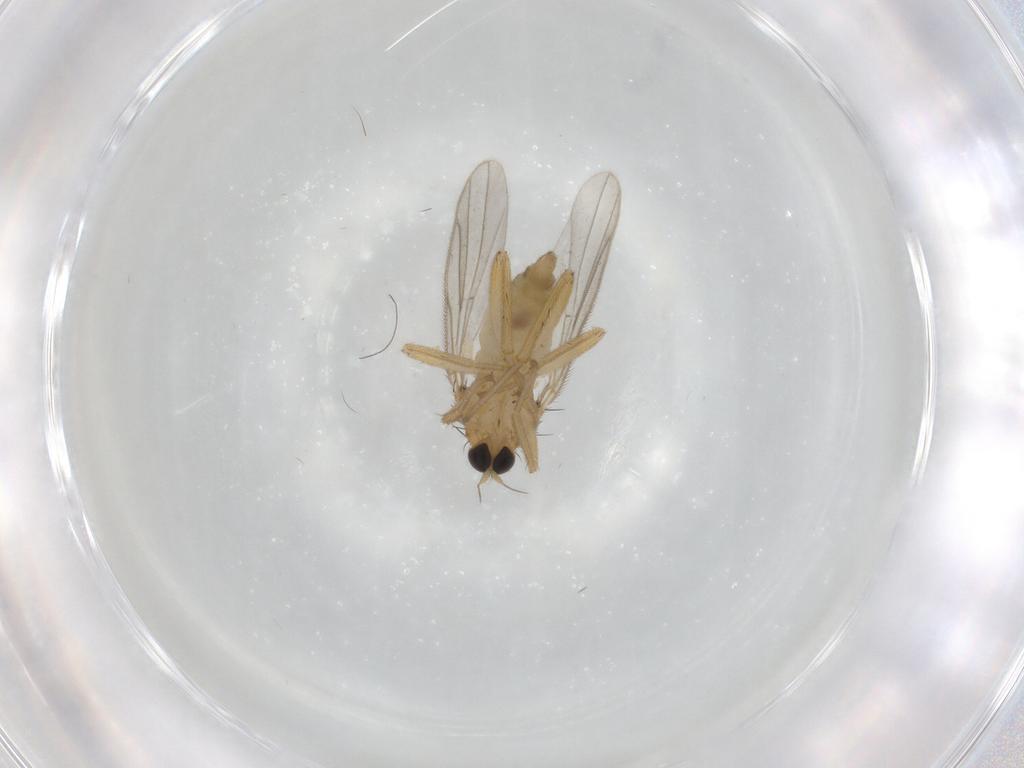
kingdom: Animalia
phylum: Arthropoda
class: Insecta
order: Diptera
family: Hybotidae
